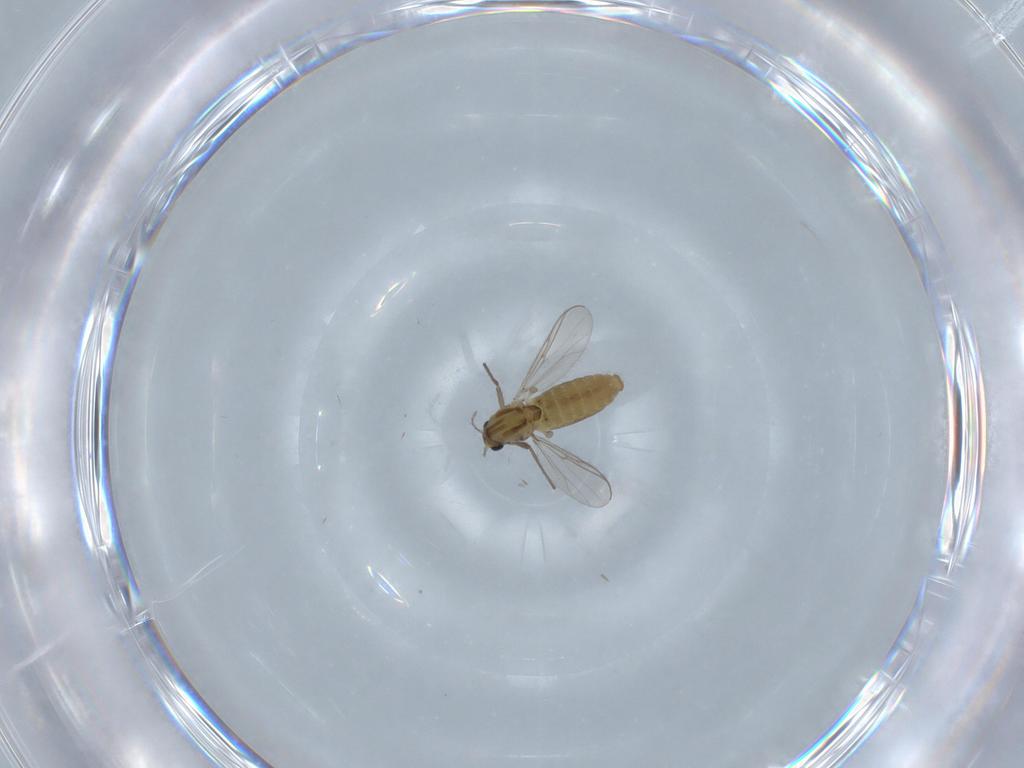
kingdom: Animalia
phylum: Arthropoda
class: Insecta
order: Diptera
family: Chironomidae
